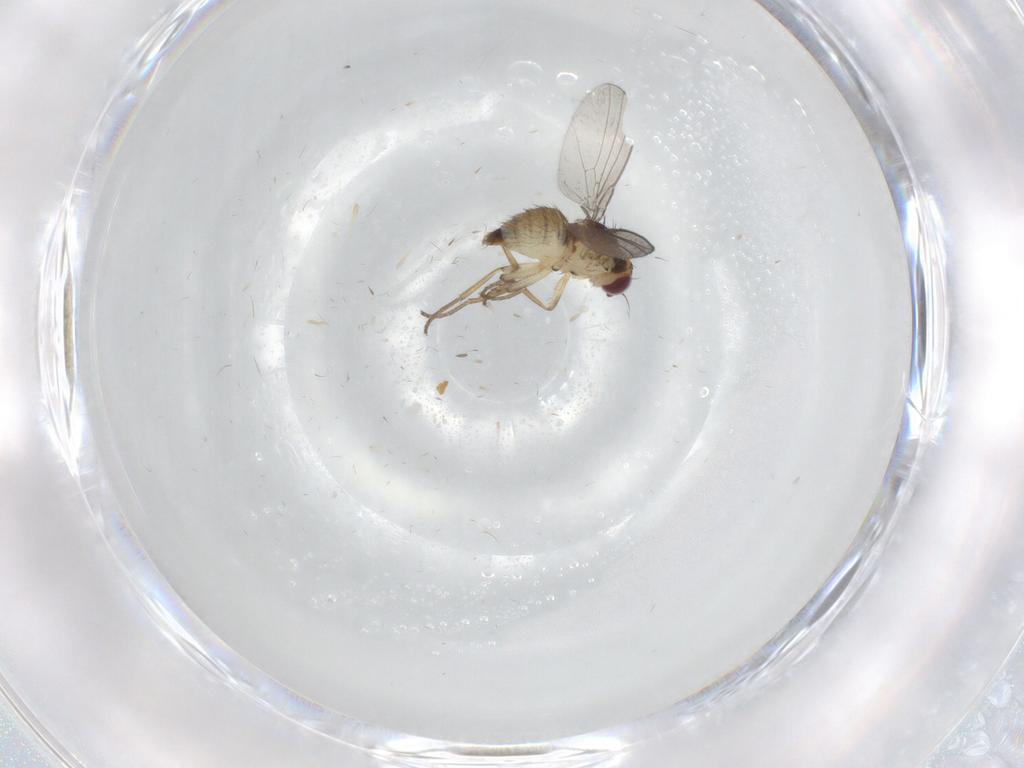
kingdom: Animalia
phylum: Arthropoda
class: Insecta
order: Diptera
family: Agromyzidae
